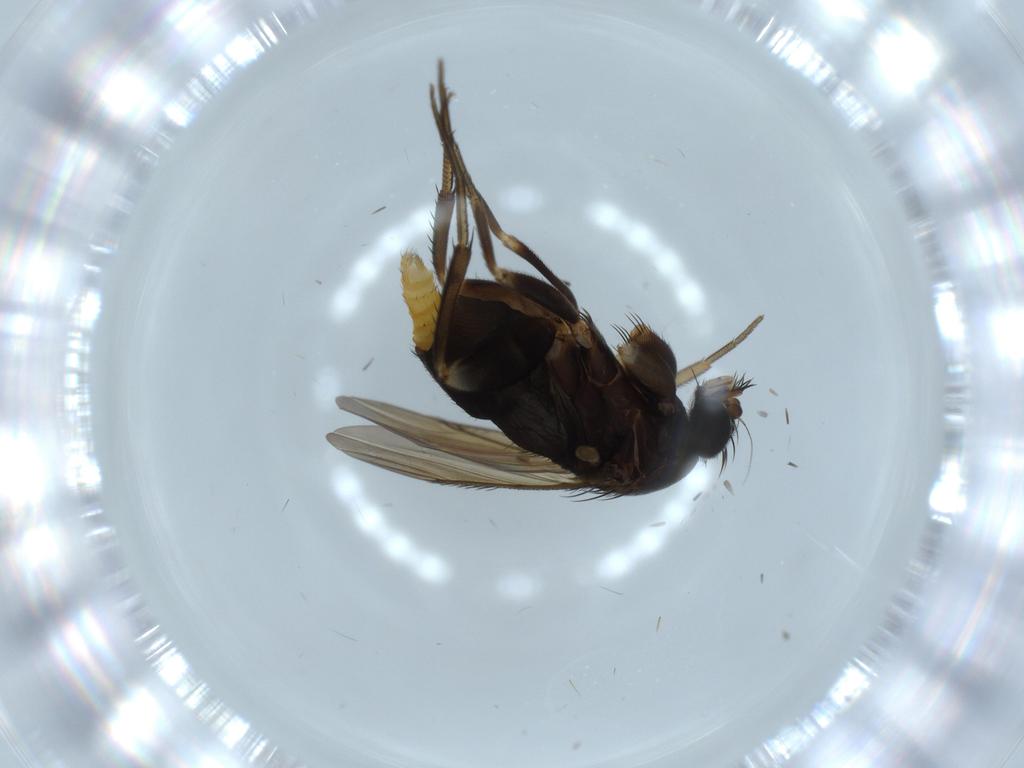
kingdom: Animalia
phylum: Arthropoda
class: Insecta
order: Diptera
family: Phoridae
